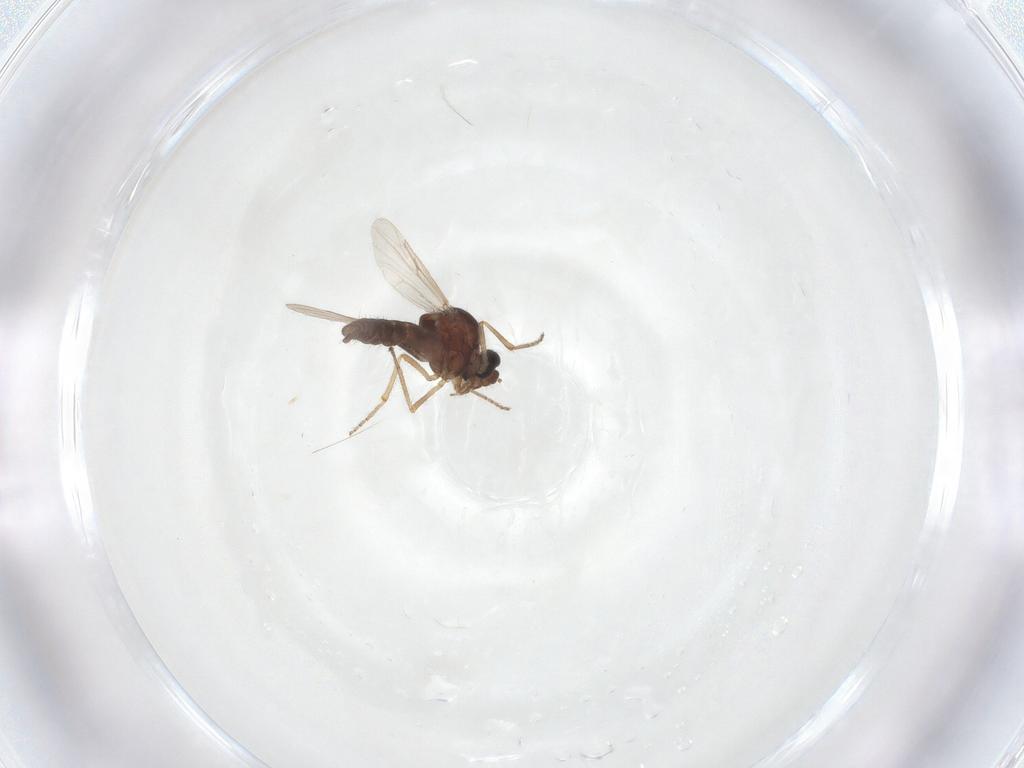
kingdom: Animalia
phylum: Arthropoda
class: Insecta
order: Diptera
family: Ceratopogonidae
